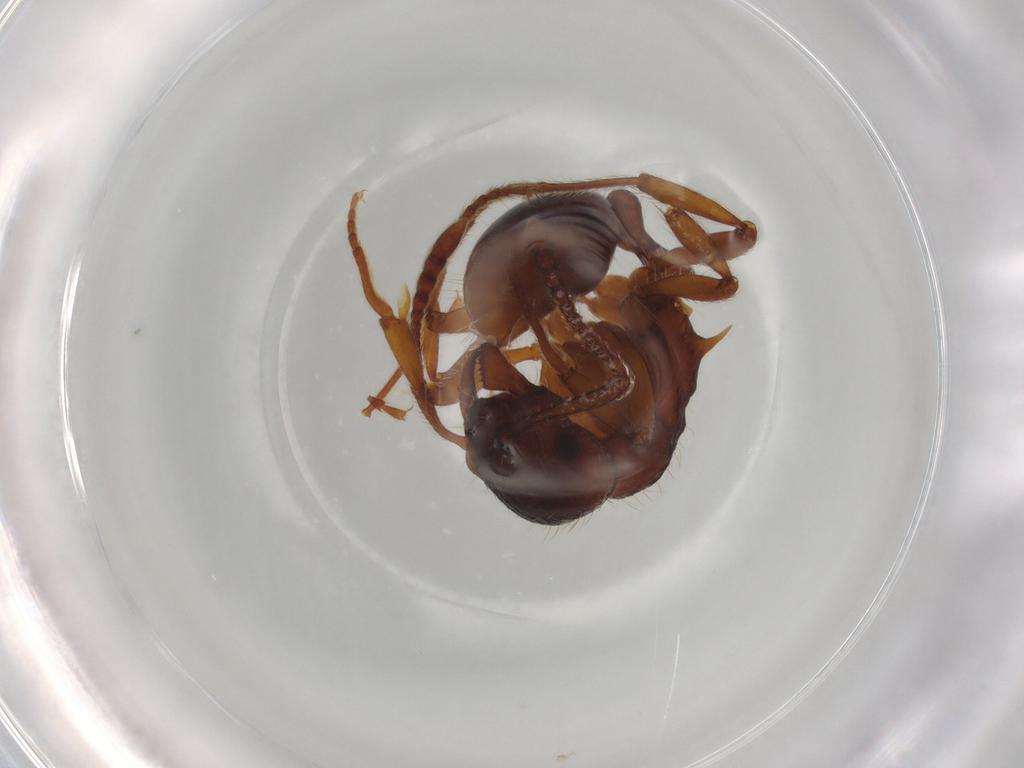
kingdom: Animalia
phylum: Arthropoda
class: Insecta
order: Hymenoptera
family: Formicidae
